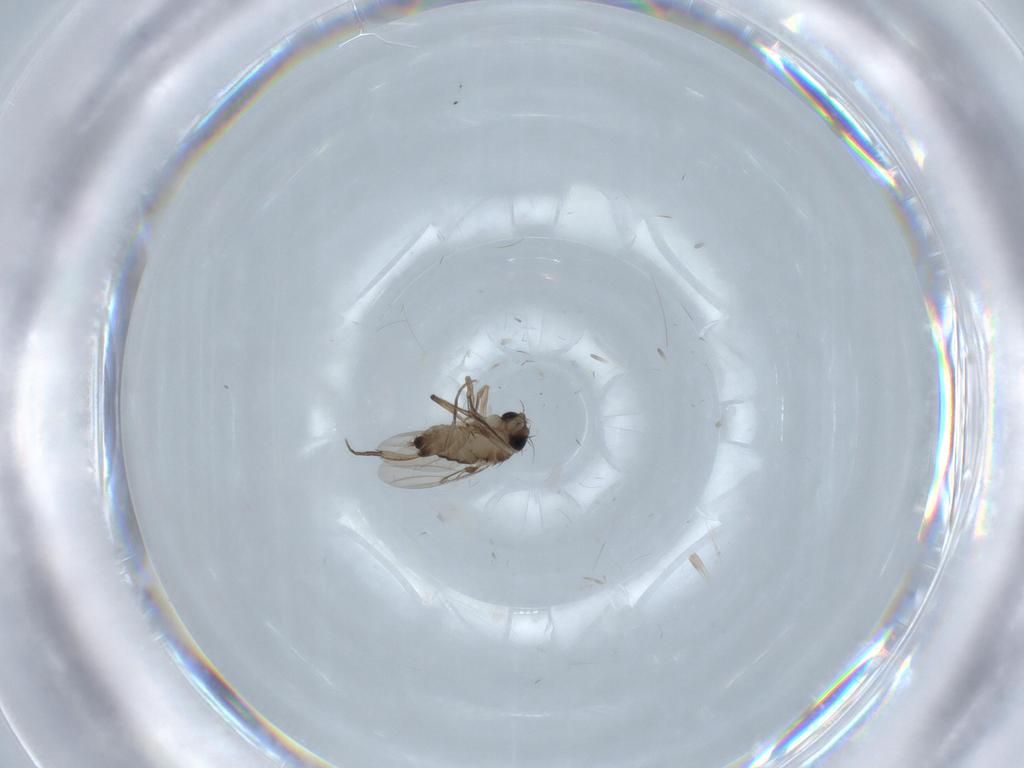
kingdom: Animalia
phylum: Arthropoda
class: Insecta
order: Diptera
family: Phoridae
